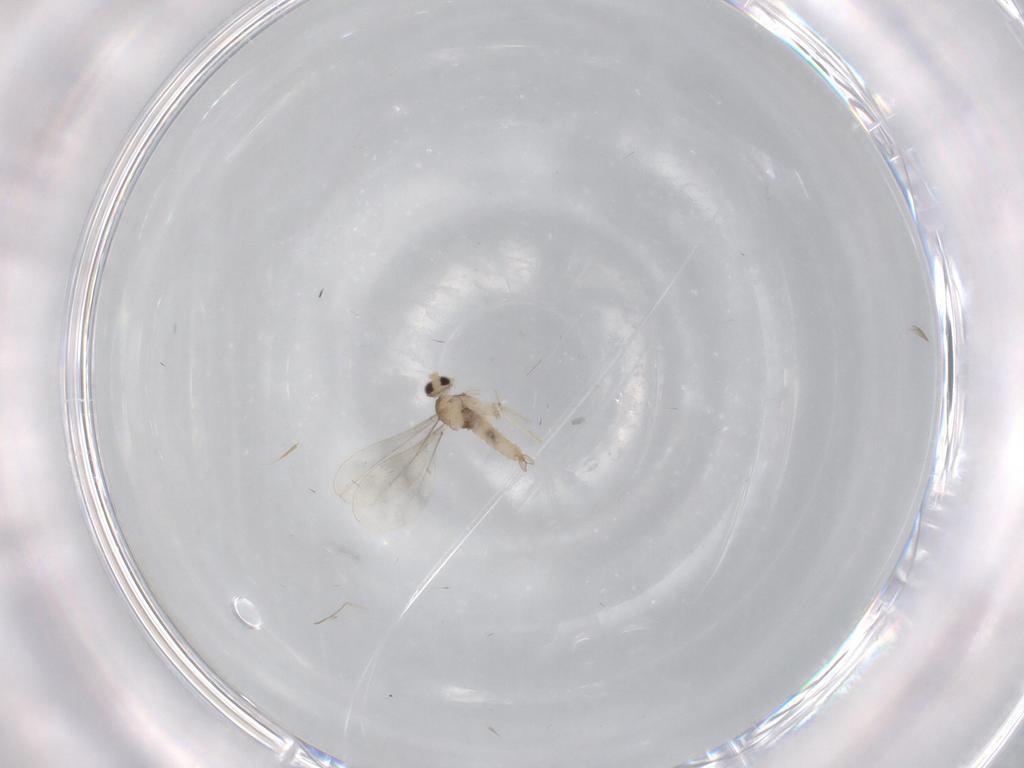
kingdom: Animalia
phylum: Arthropoda
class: Insecta
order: Diptera
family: Cecidomyiidae
